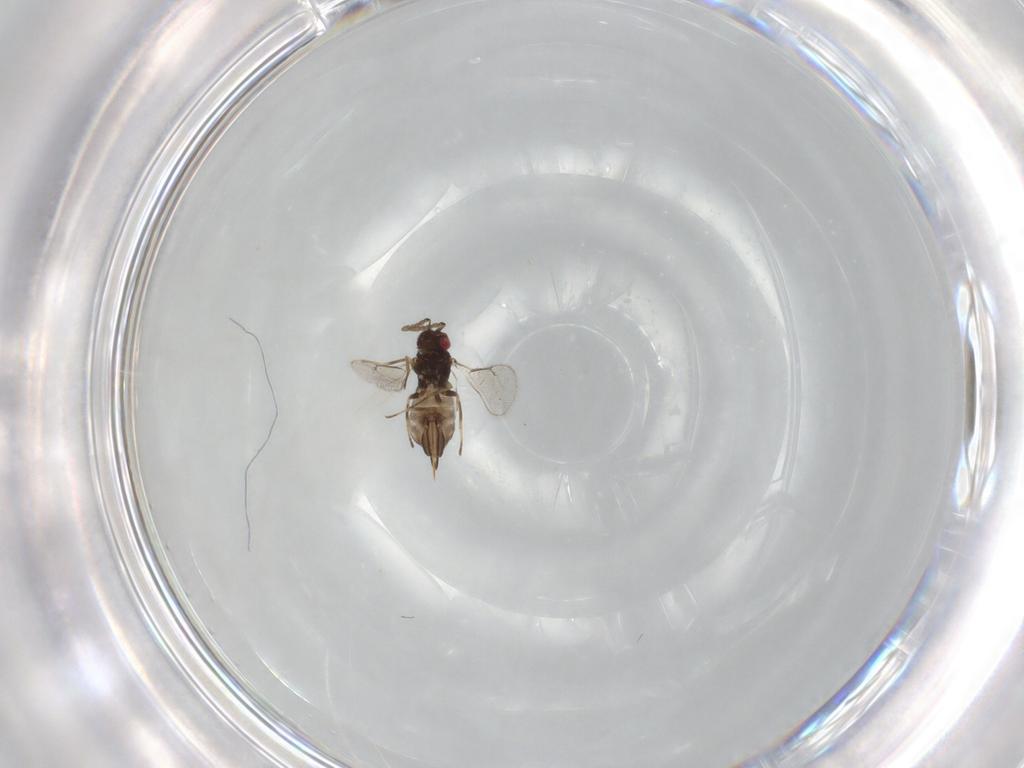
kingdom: Animalia
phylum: Arthropoda
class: Insecta
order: Hymenoptera
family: Eulophidae
